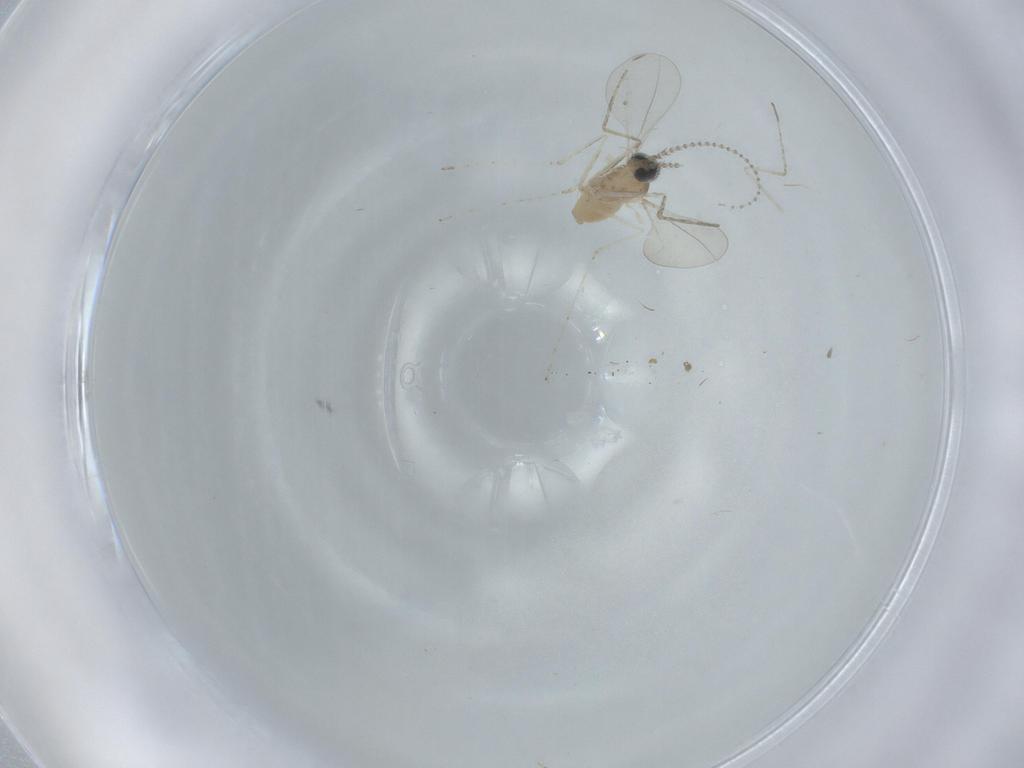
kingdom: Animalia
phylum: Arthropoda
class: Insecta
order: Diptera
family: Cecidomyiidae
